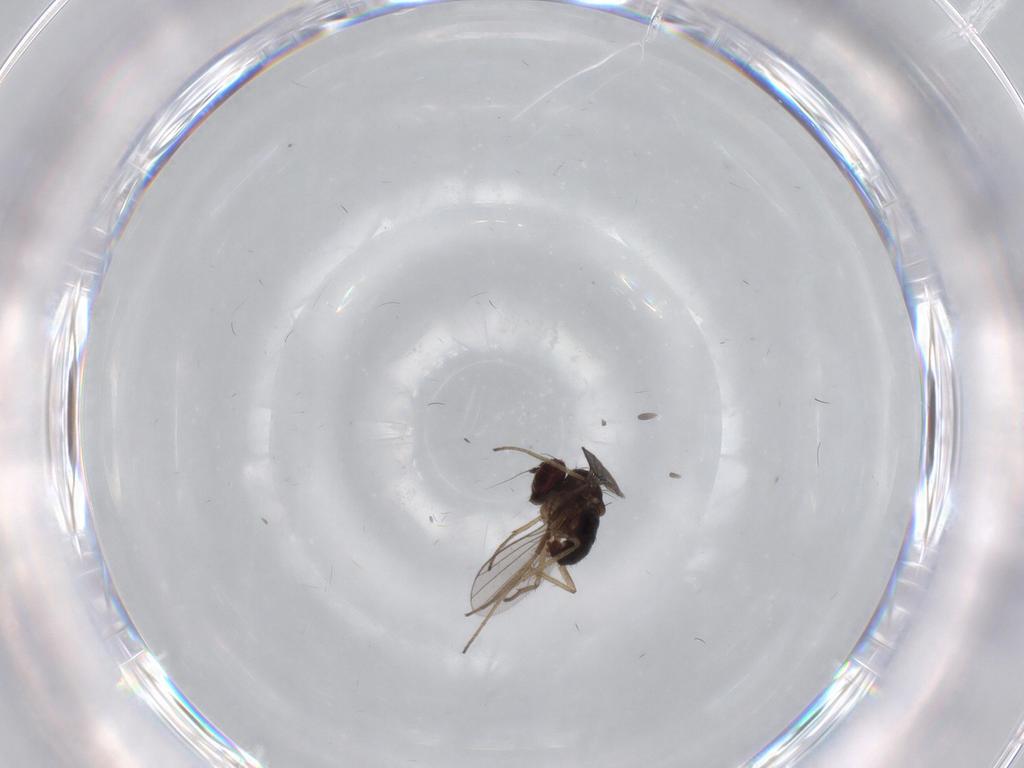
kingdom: Animalia
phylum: Arthropoda
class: Insecta
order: Diptera
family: Dolichopodidae
